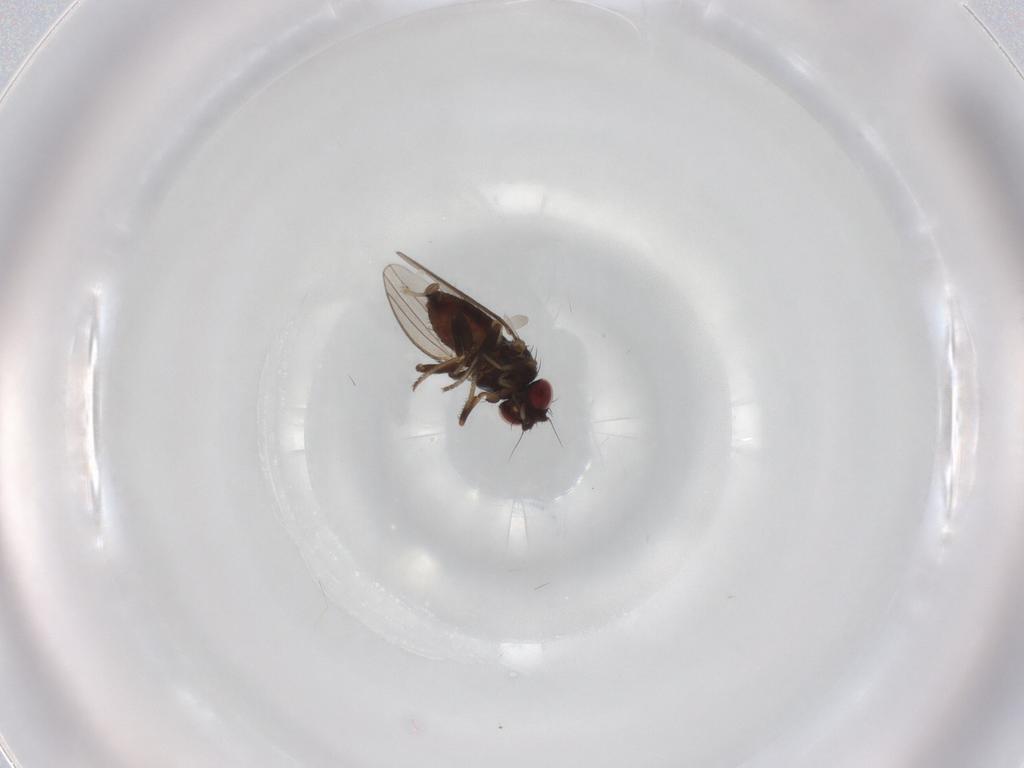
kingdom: Animalia
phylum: Arthropoda
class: Insecta
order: Diptera
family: Milichiidae
